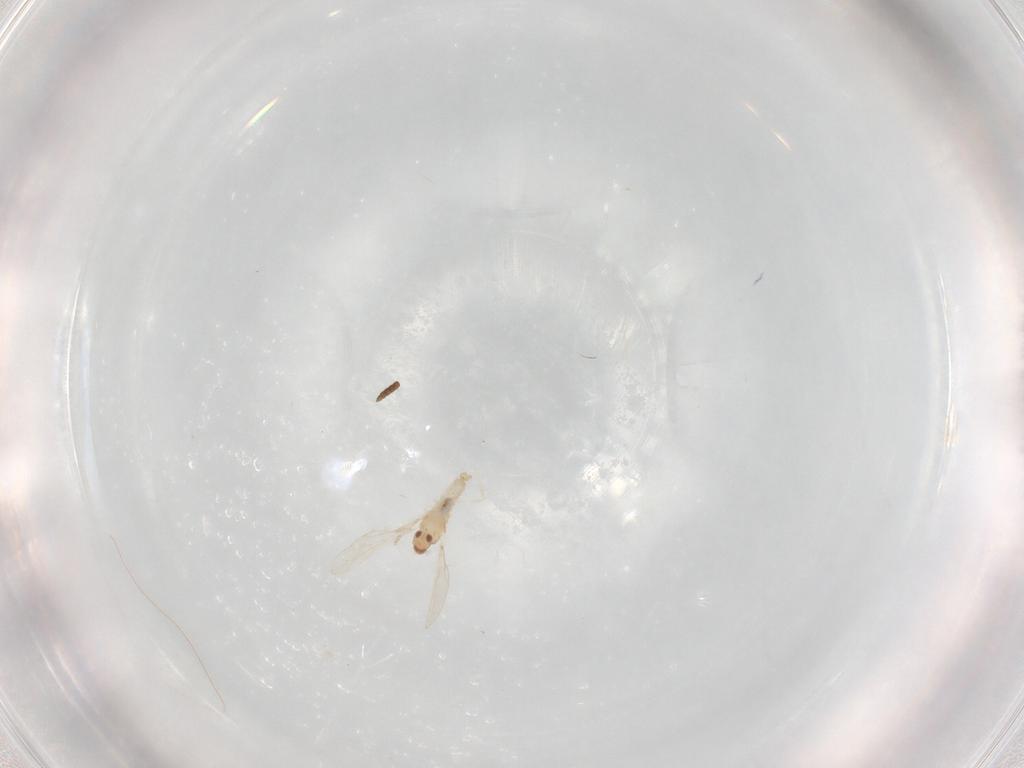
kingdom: Animalia
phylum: Arthropoda
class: Insecta
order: Diptera
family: Cecidomyiidae
